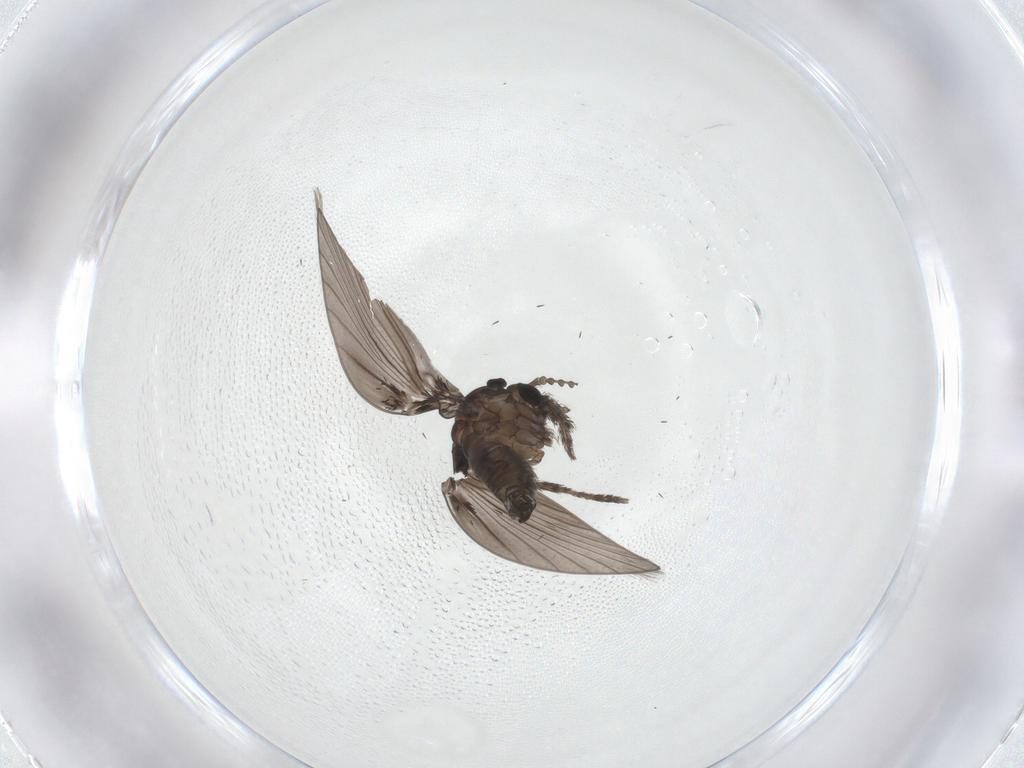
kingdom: Animalia
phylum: Arthropoda
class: Insecta
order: Diptera
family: Psychodidae
